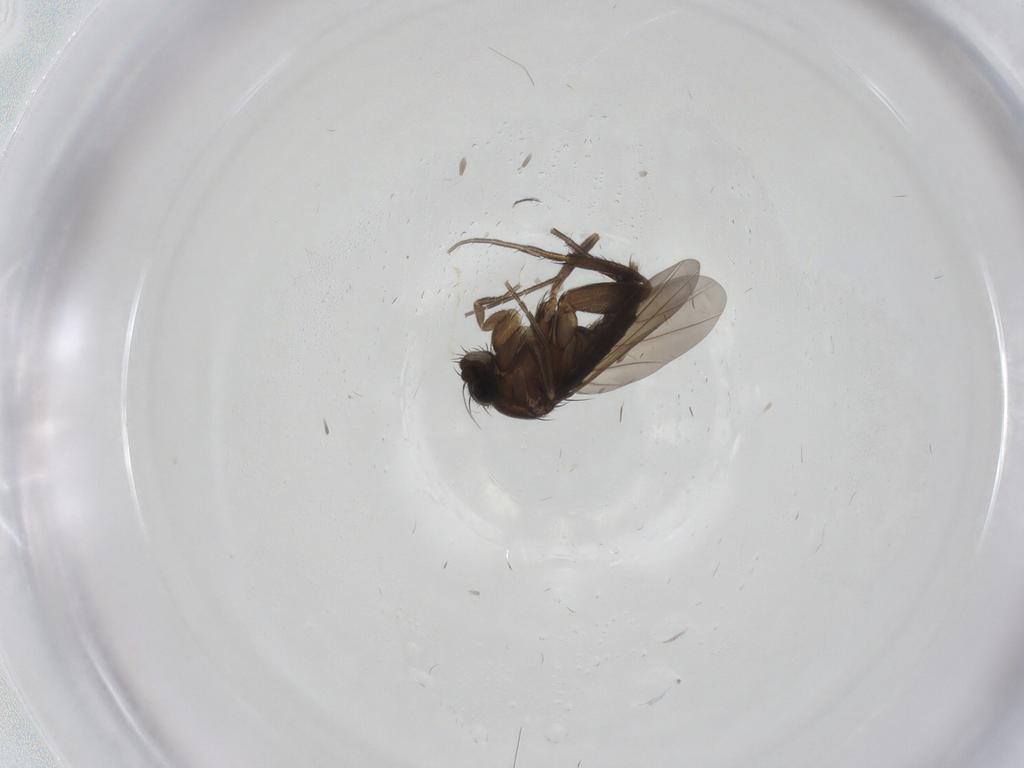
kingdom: Animalia
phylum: Arthropoda
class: Insecta
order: Diptera
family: Phoridae
